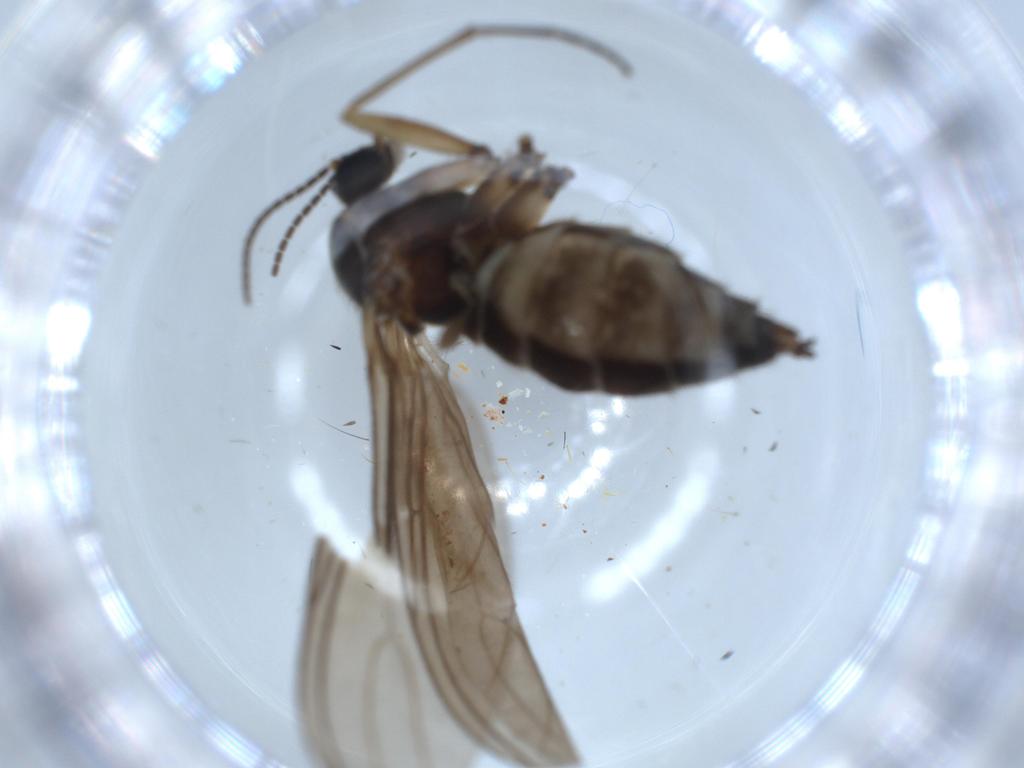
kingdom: Animalia
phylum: Arthropoda
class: Insecta
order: Diptera
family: Sciaridae
